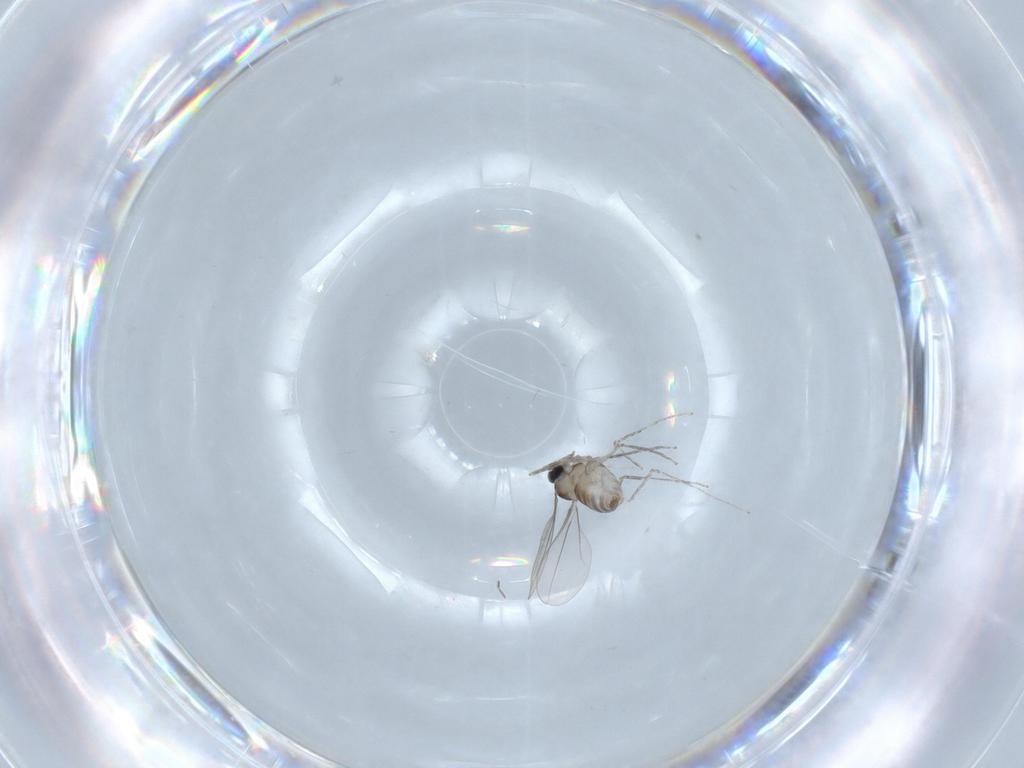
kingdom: Animalia
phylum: Arthropoda
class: Insecta
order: Diptera
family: Cecidomyiidae
